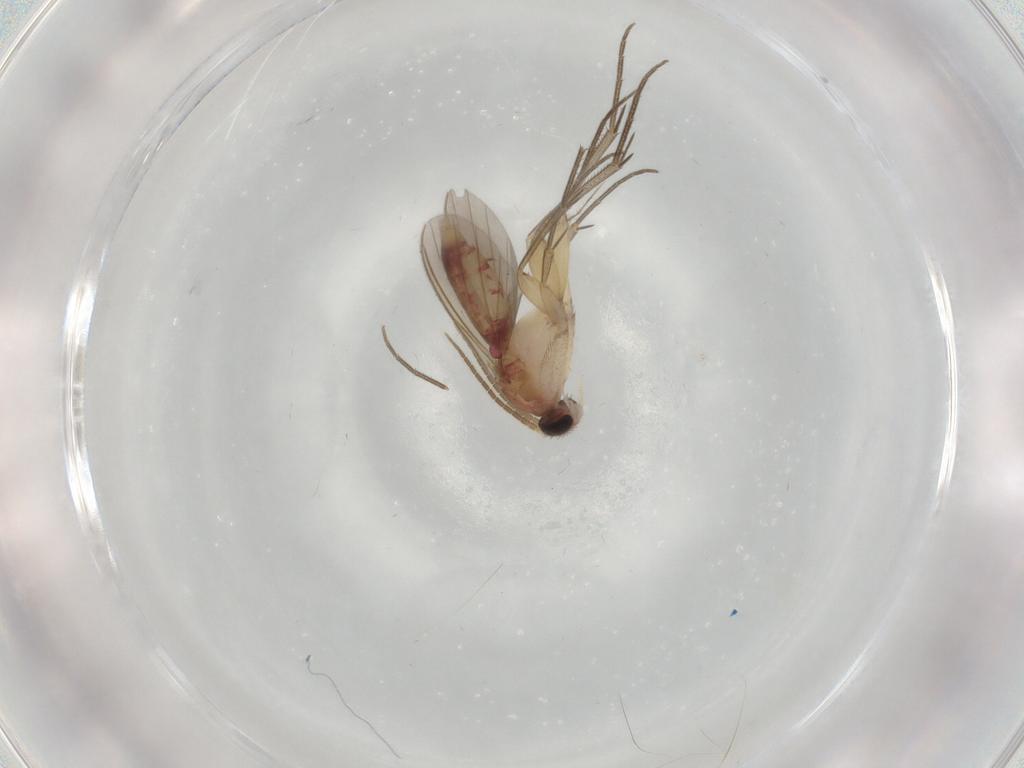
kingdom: Animalia
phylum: Arthropoda
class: Insecta
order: Diptera
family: Mycetophilidae
